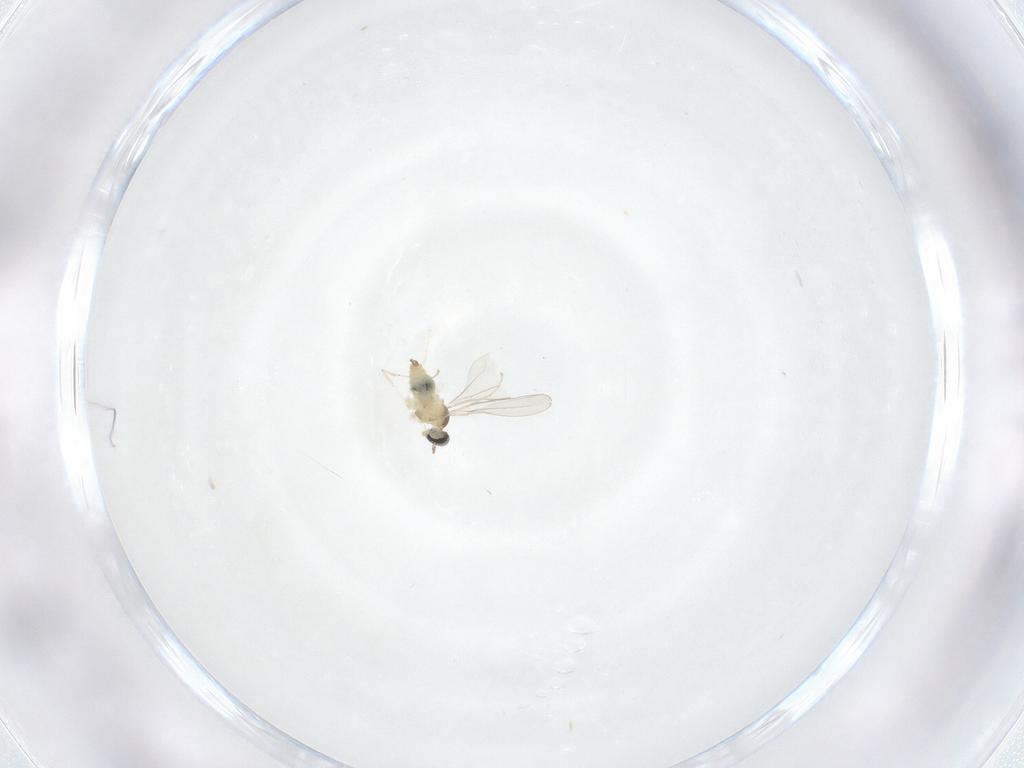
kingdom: Animalia
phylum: Arthropoda
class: Insecta
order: Diptera
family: Cecidomyiidae
